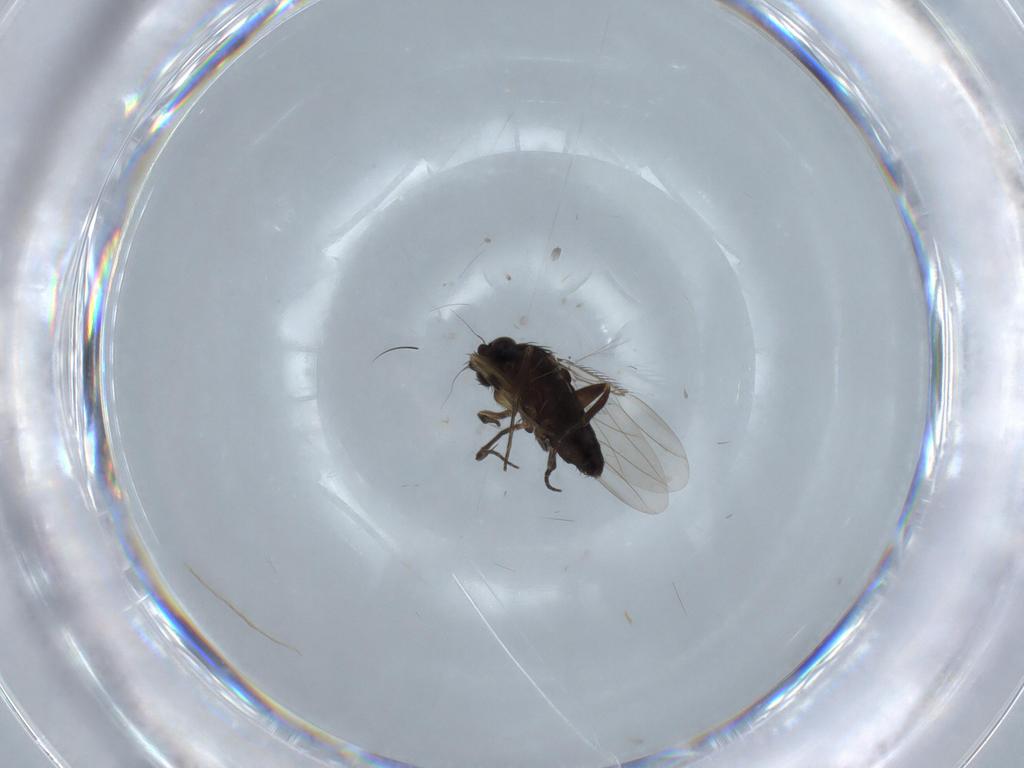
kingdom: Animalia
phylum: Arthropoda
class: Insecta
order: Diptera
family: Phoridae
